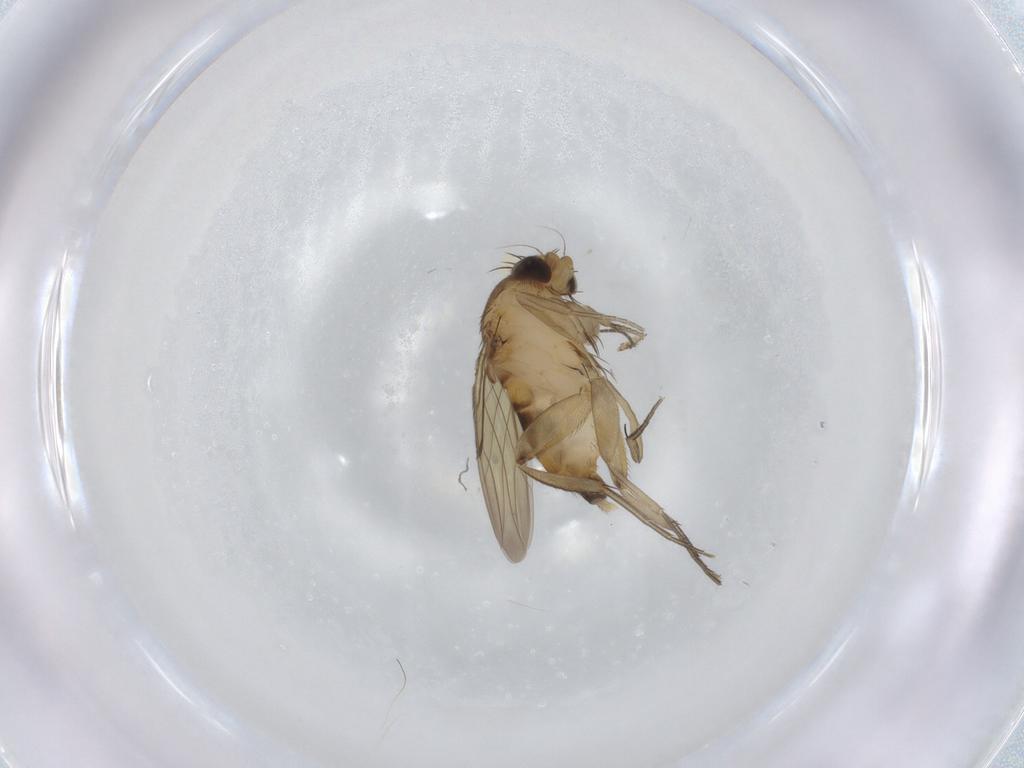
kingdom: Animalia
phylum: Arthropoda
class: Insecta
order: Diptera
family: Sciaridae
